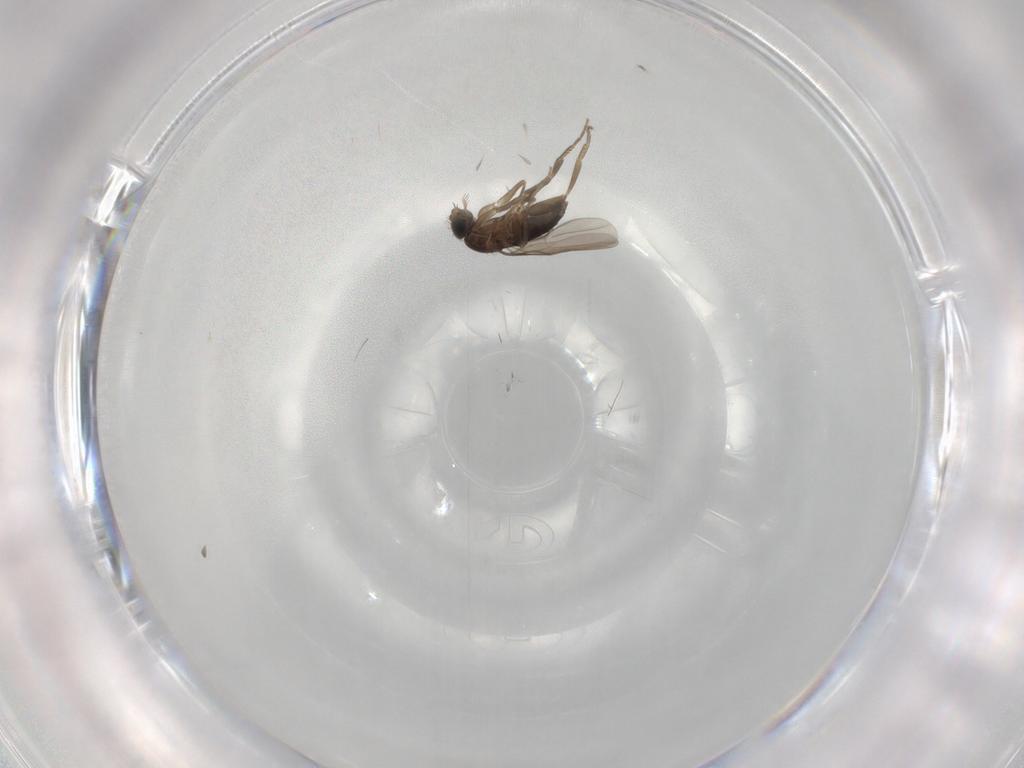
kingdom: Animalia
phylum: Arthropoda
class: Insecta
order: Diptera
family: Phoridae
